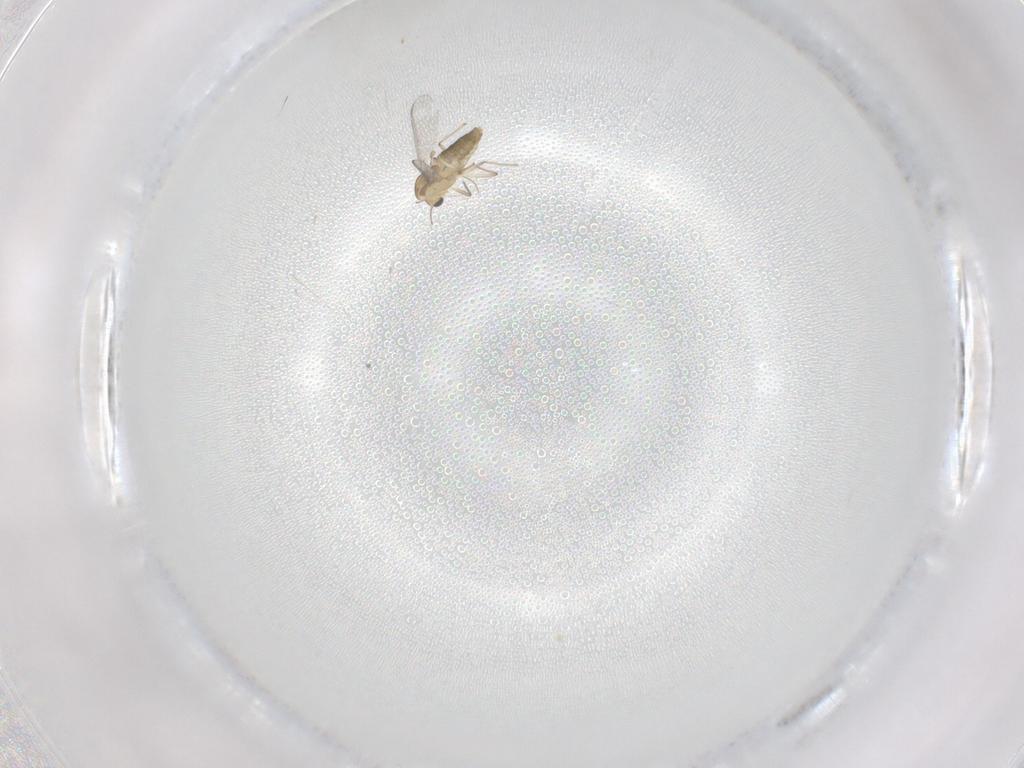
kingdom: Animalia
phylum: Arthropoda
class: Insecta
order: Diptera
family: Chironomidae
